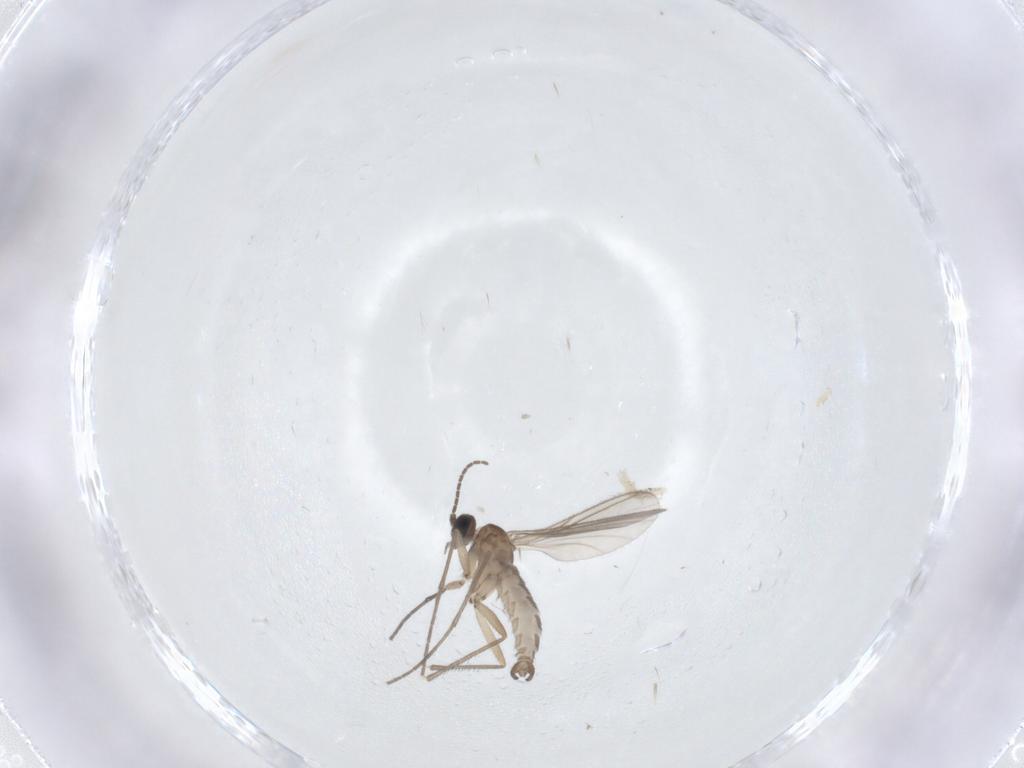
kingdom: Animalia
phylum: Arthropoda
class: Insecta
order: Diptera
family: Sciaridae
